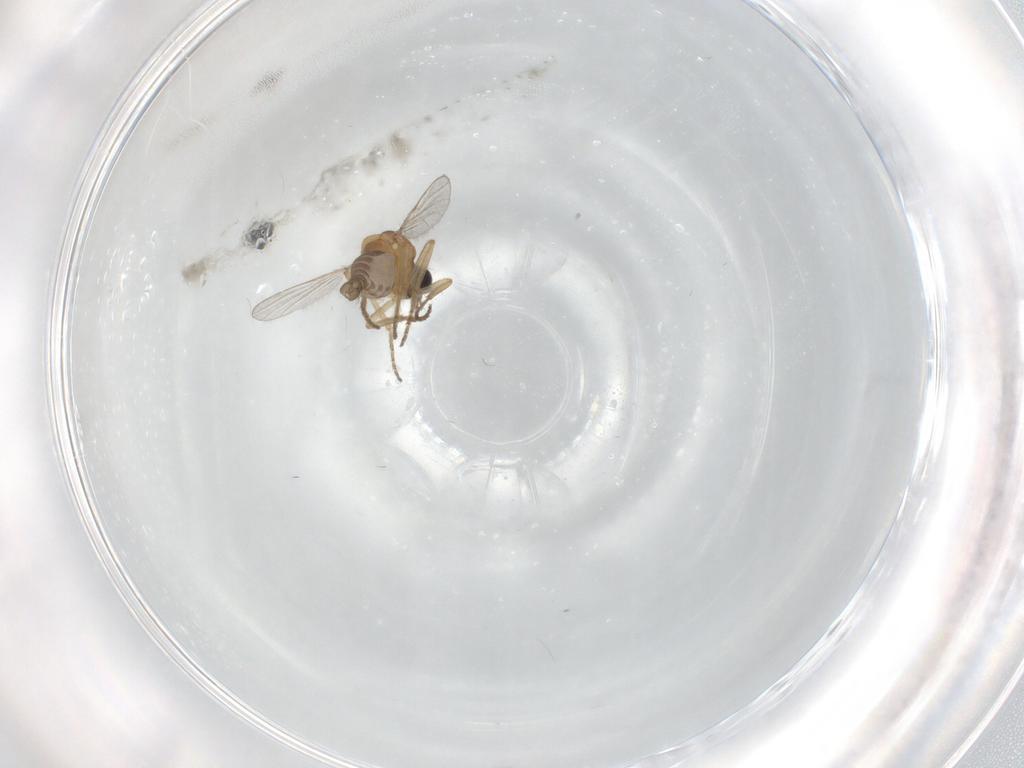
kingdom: Animalia
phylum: Arthropoda
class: Insecta
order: Diptera
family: Ceratopogonidae
